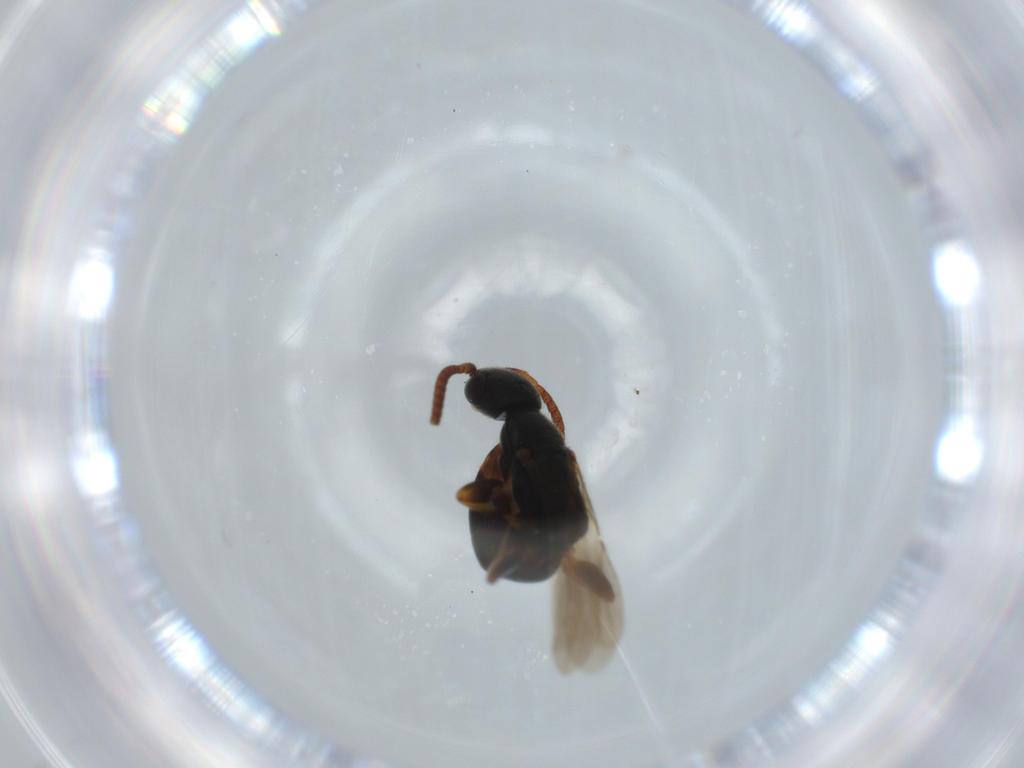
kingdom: Animalia
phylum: Arthropoda
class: Insecta
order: Hymenoptera
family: Bethylidae
